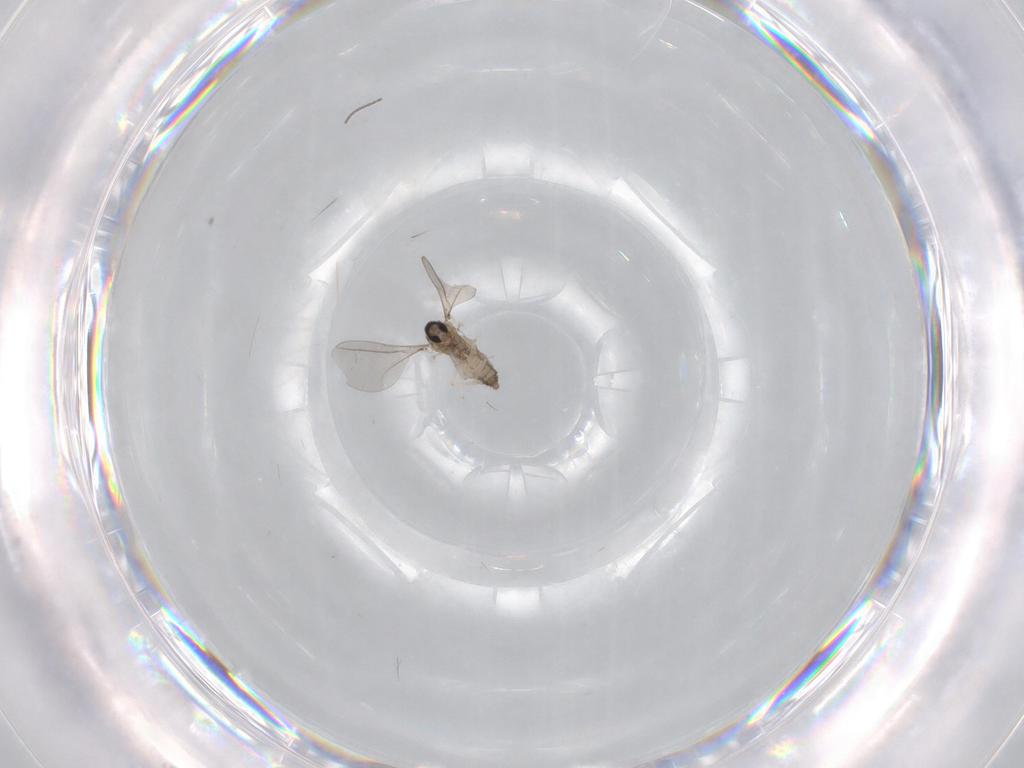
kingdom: Animalia
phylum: Arthropoda
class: Insecta
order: Diptera
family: Cecidomyiidae
